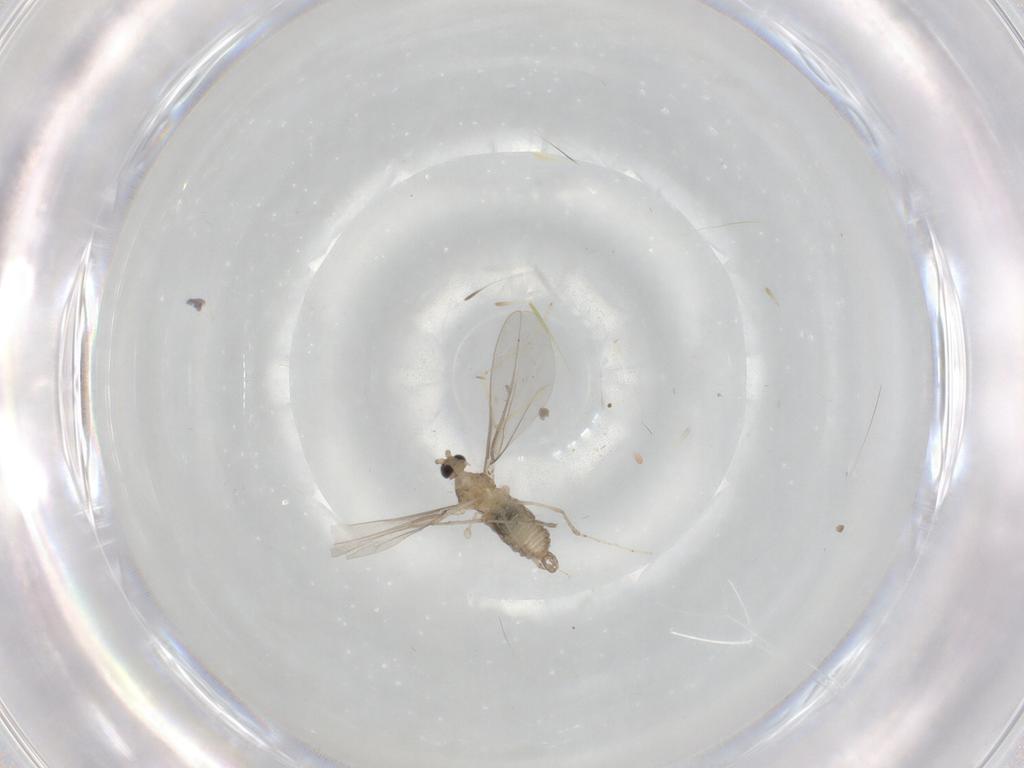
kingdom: Animalia
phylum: Arthropoda
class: Insecta
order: Diptera
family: Cecidomyiidae
